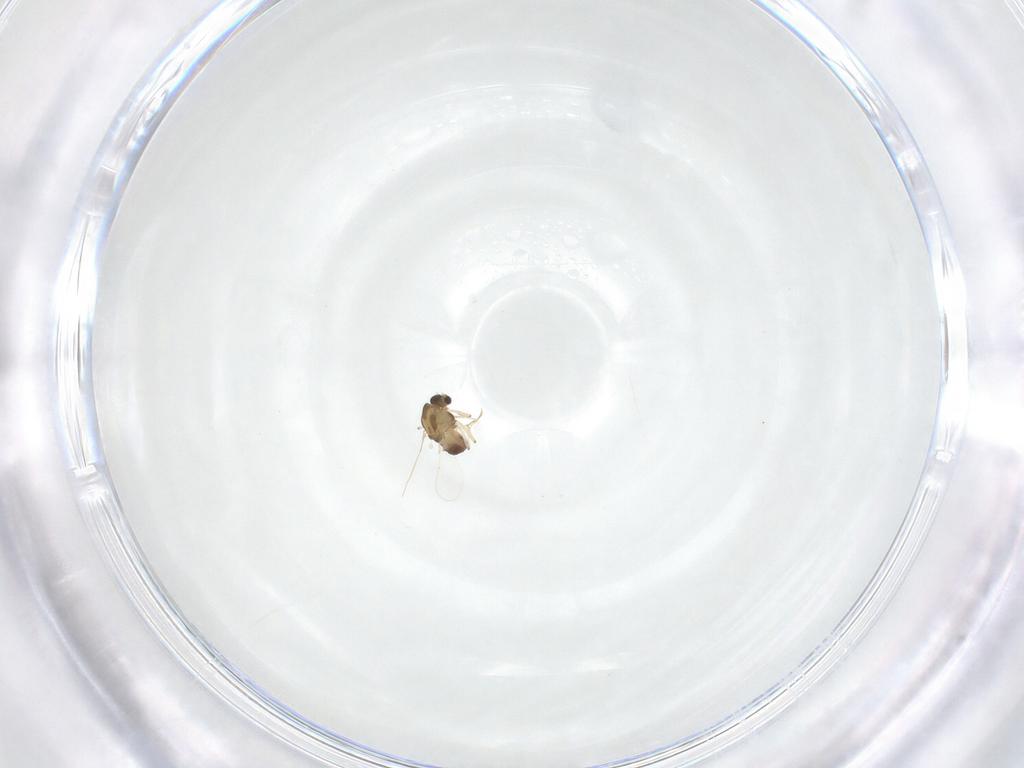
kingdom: Animalia
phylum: Arthropoda
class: Insecta
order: Diptera
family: Chironomidae
